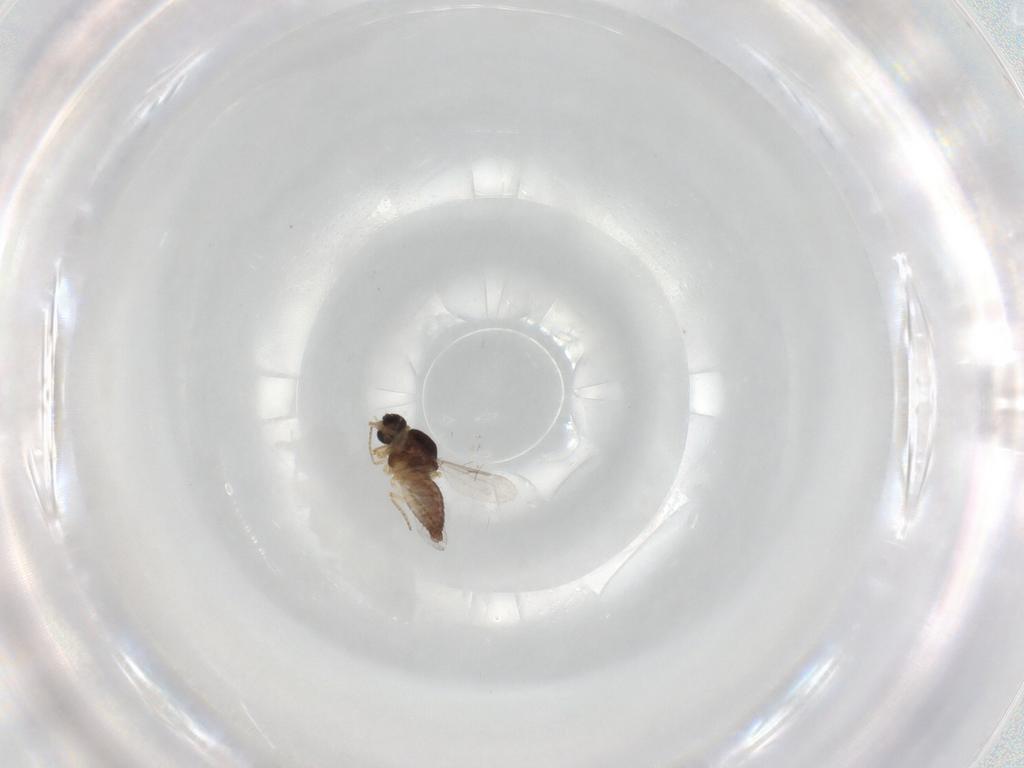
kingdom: Animalia
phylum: Arthropoda
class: Insecta
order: Diptera
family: Ceratopogonidae
